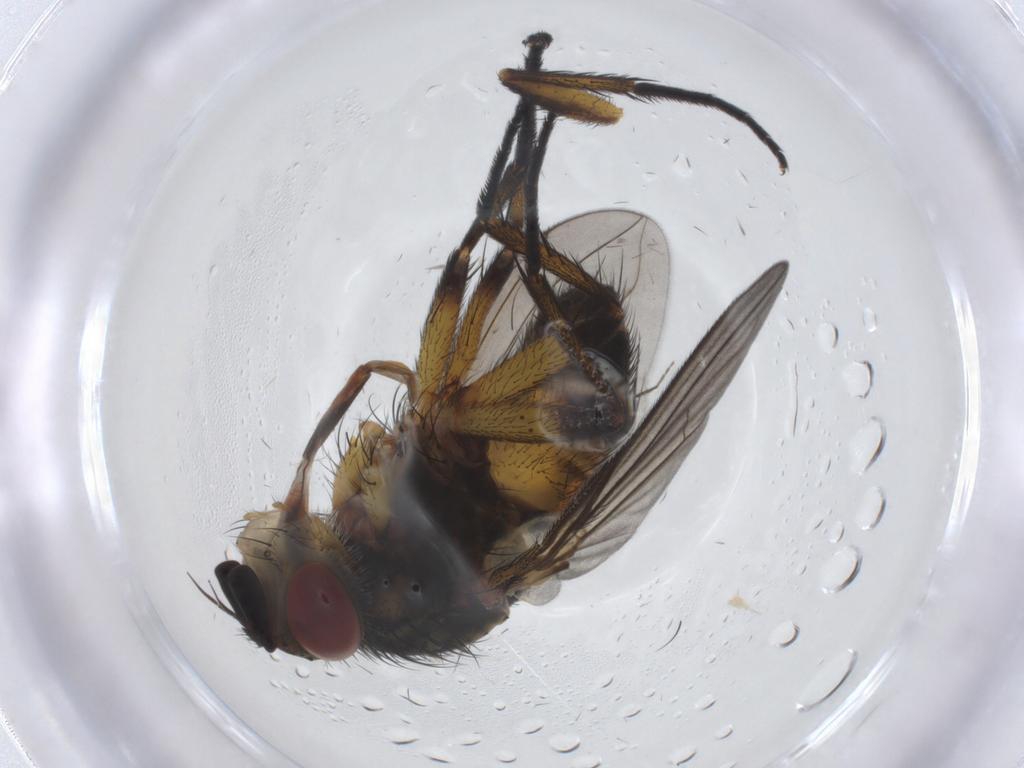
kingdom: Animalia
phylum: Arthropoda
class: Insecta
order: Diptera
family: Tachinidae
